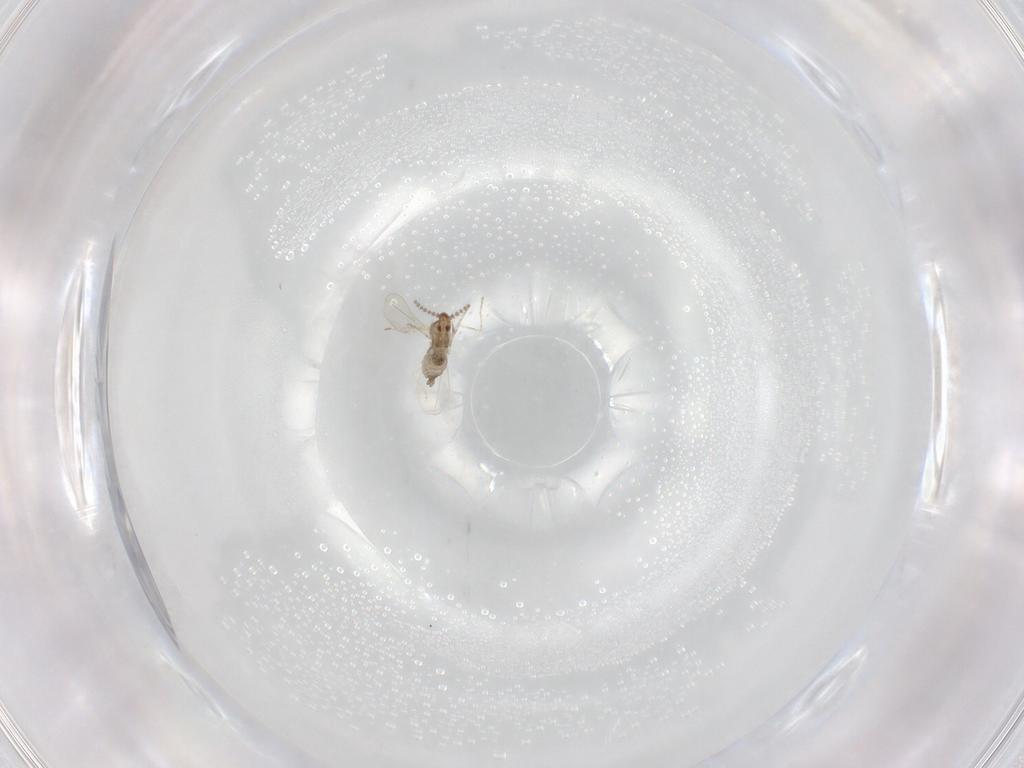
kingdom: Animalia
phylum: Arthropoda
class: Insecta
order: Diptera
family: Cecidomyiidae
